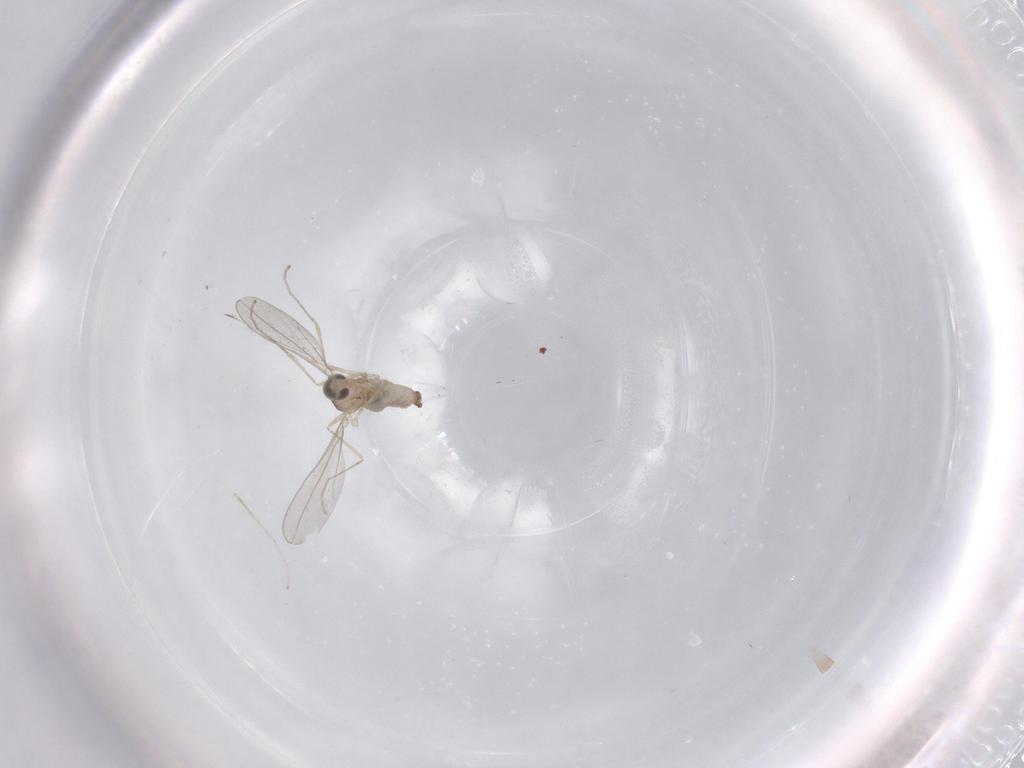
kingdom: Animalia
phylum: Arthropoda
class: Insecta
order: Diptera
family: Cecidomyiidae
